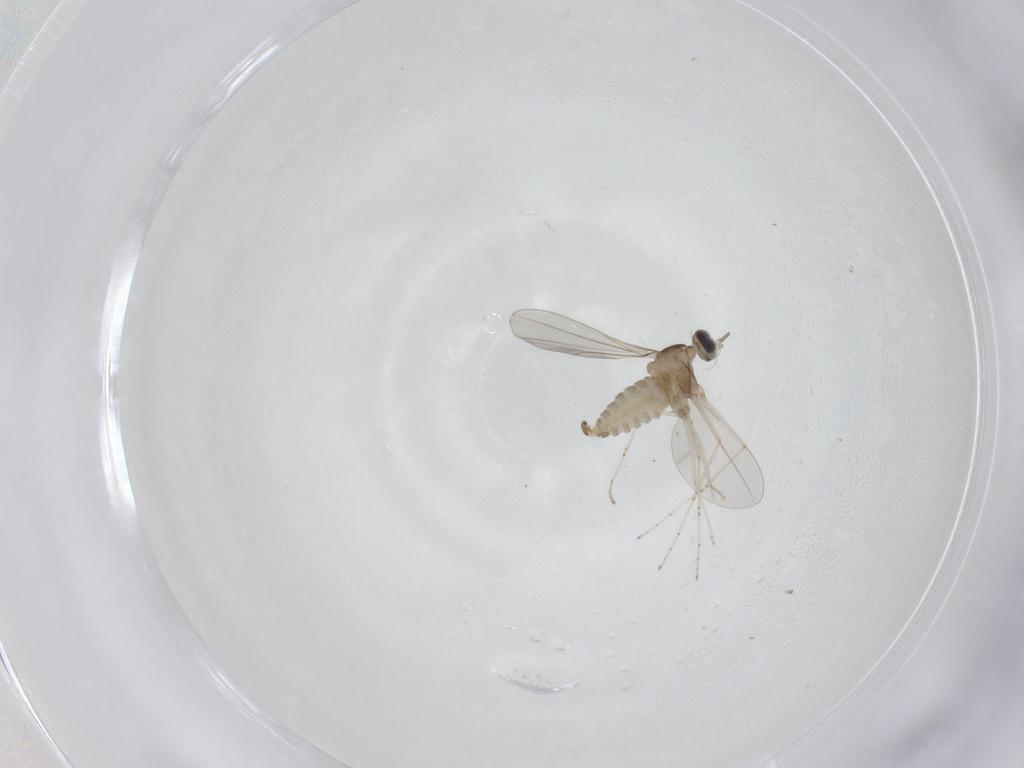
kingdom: Animalia
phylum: Arthropoda
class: Insecta
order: Diptera
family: Cecidomyiidae
